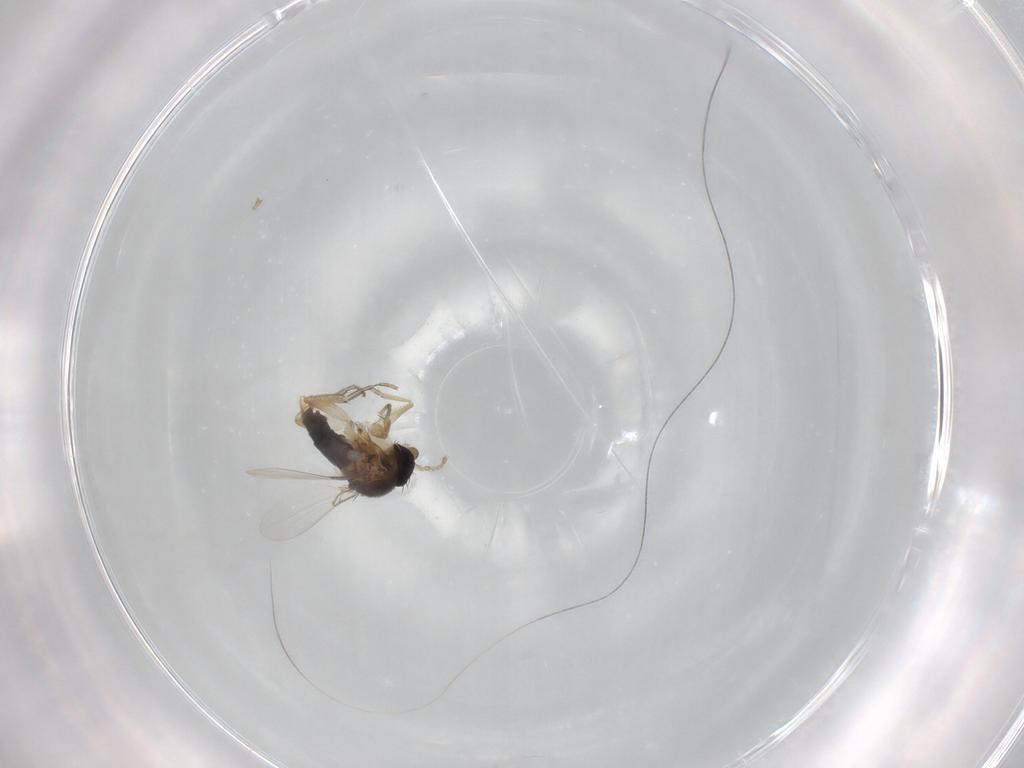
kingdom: Animalia
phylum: Arthropoda
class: Insecta
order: Diptera
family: Phoridae
